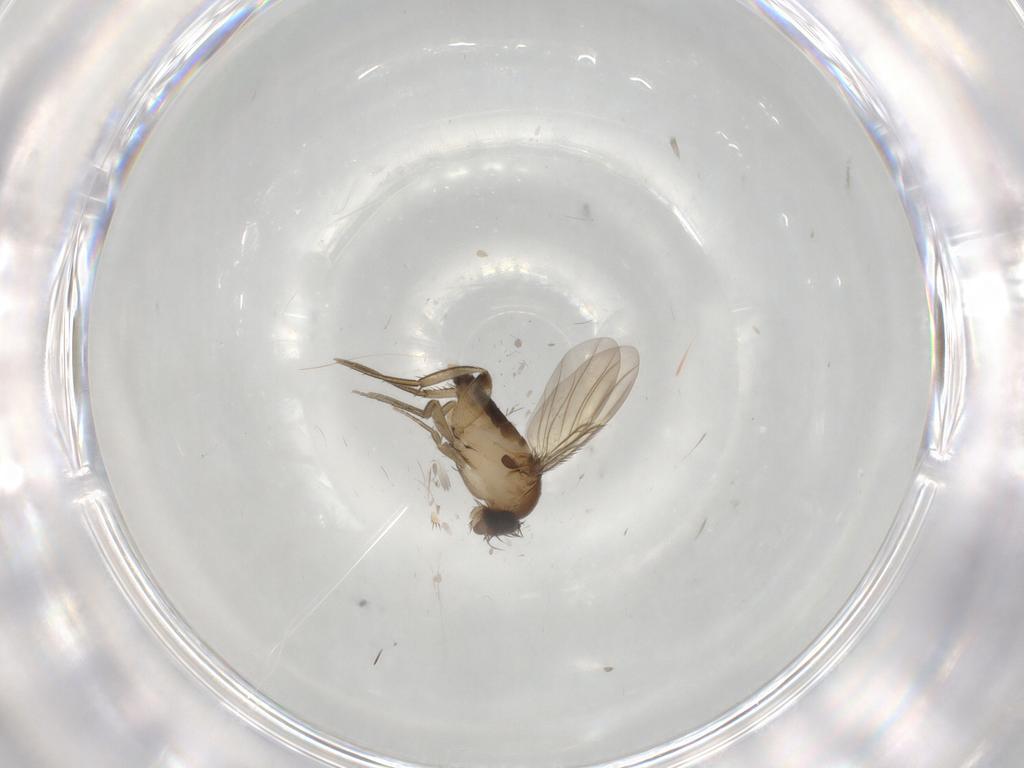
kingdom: Animalia
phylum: Arthropoda
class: Insecta
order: Diptera
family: Phoridae
